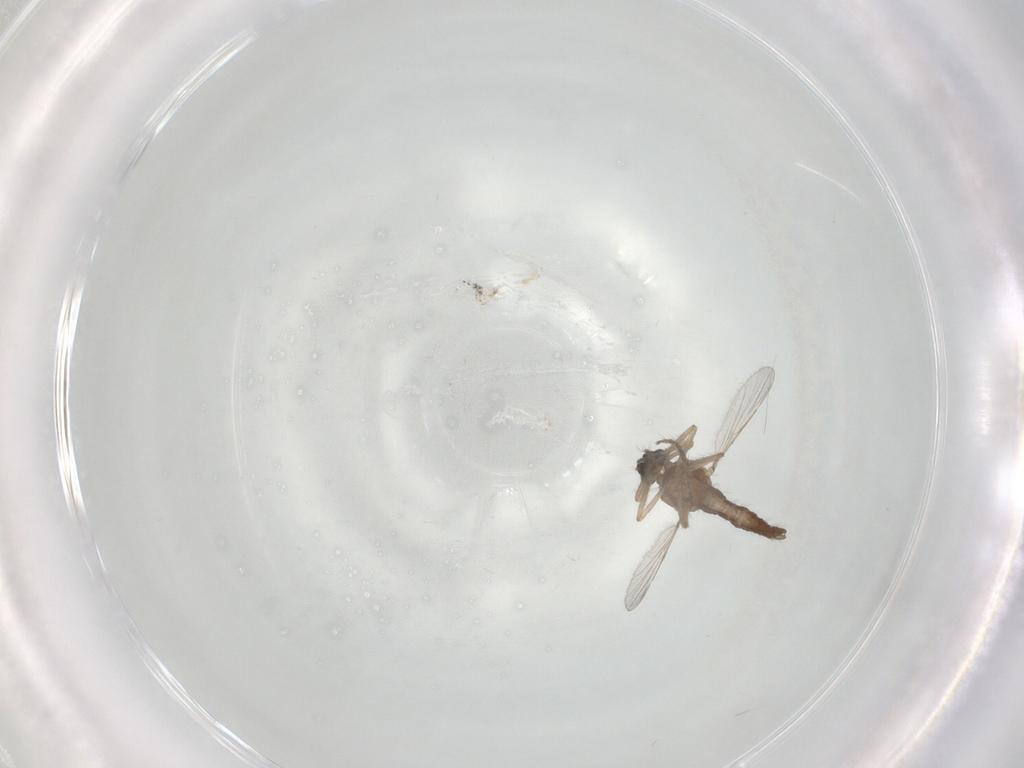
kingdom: Animalia
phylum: Arthropoda
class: Insecta
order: Diptera
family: Ceratopogonidae
